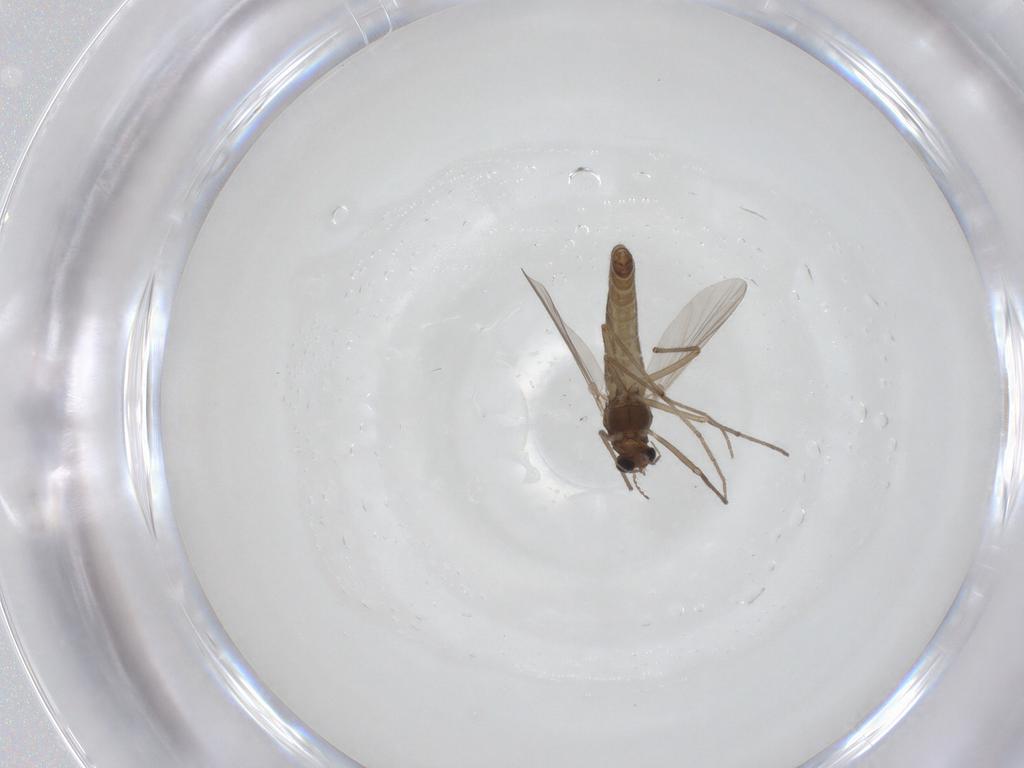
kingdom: Animalia
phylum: Arthropoda
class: Insecta
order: Diptera
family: Chironomidae
